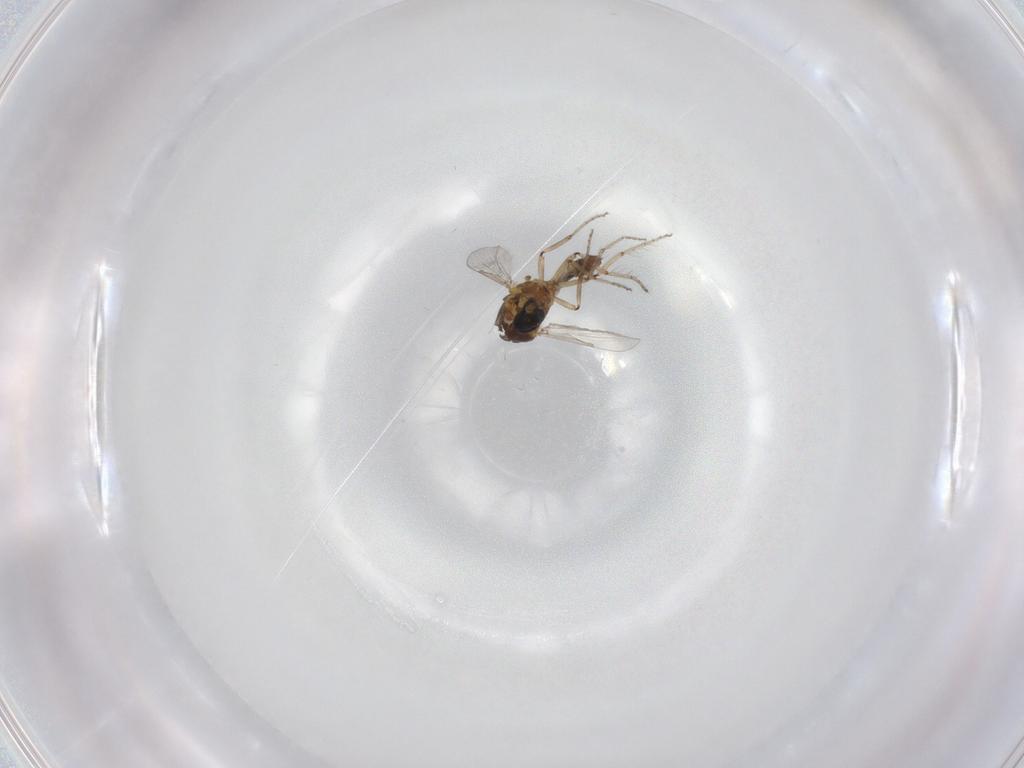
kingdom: Animalia
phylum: Arthropoda
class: Insecta
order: Diptera
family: Ceratopogonidae
